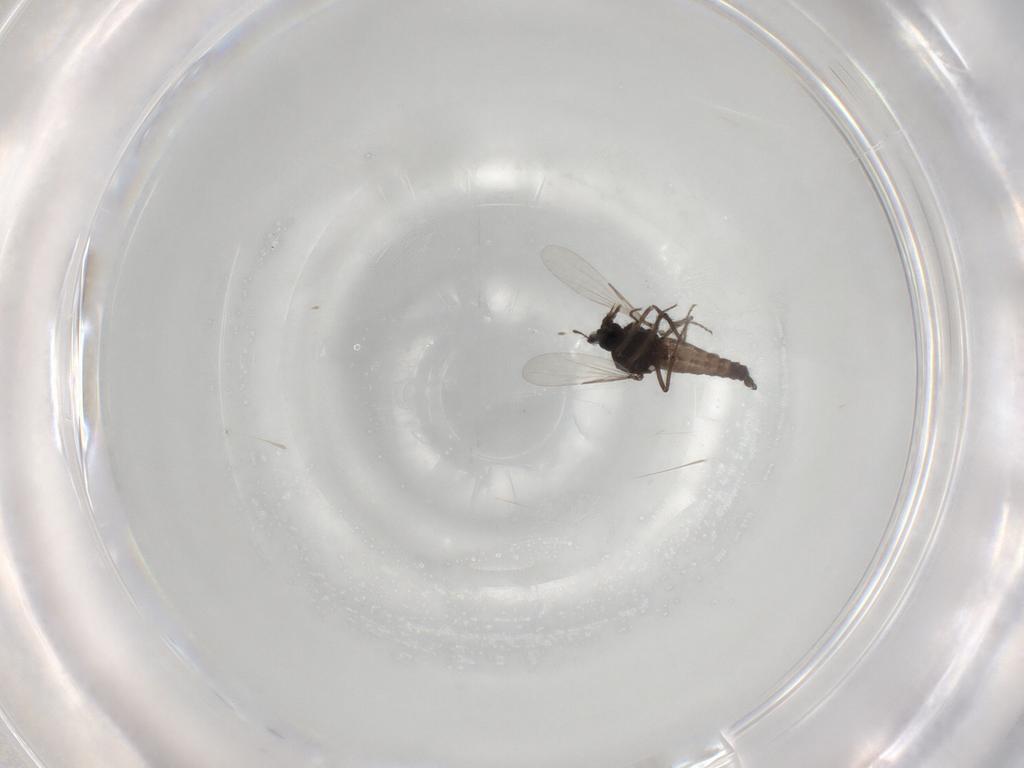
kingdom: Animalia
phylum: Arthropoda
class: Insecta
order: Diptera
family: Ceratopogonidae
